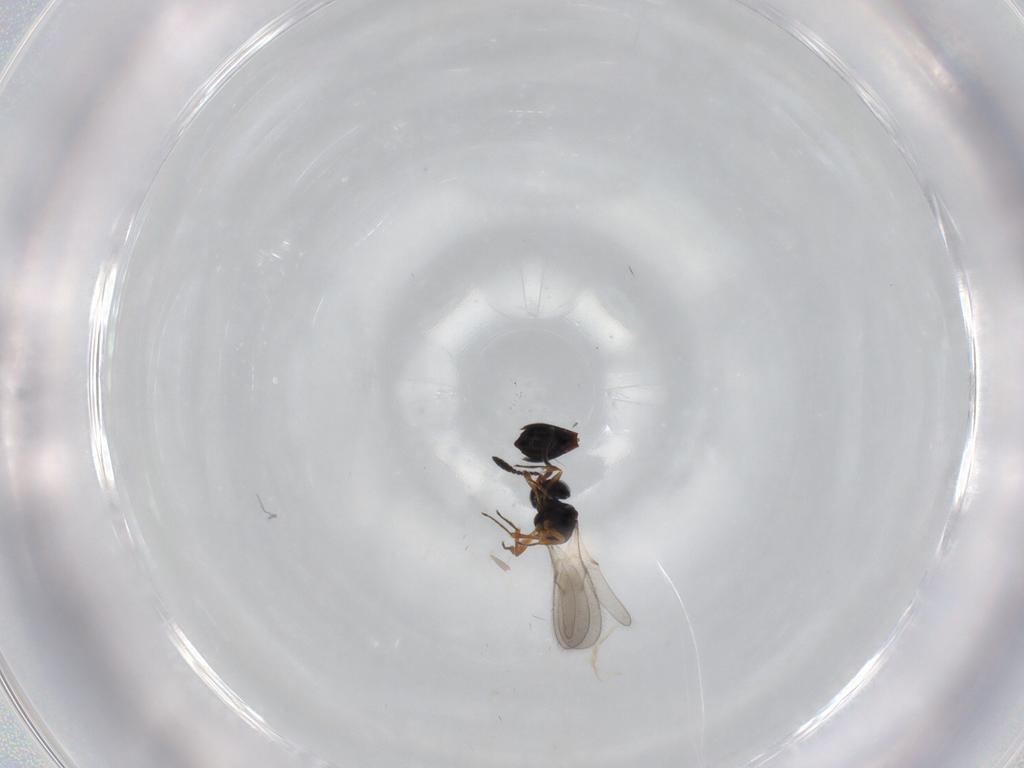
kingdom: Animalia
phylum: Arthropoda
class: Insecta
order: Hymenoptera
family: Scelionidae
